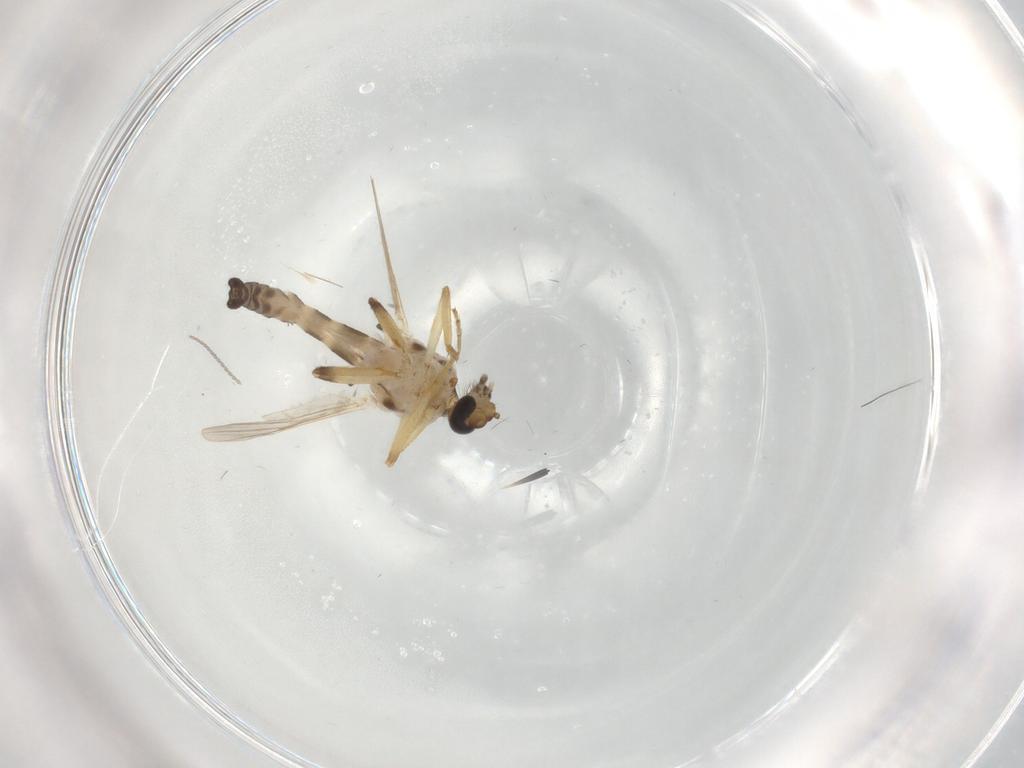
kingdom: Animalia
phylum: Arthropoda
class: Insecta
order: Diptera
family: Ceratopogonidae
